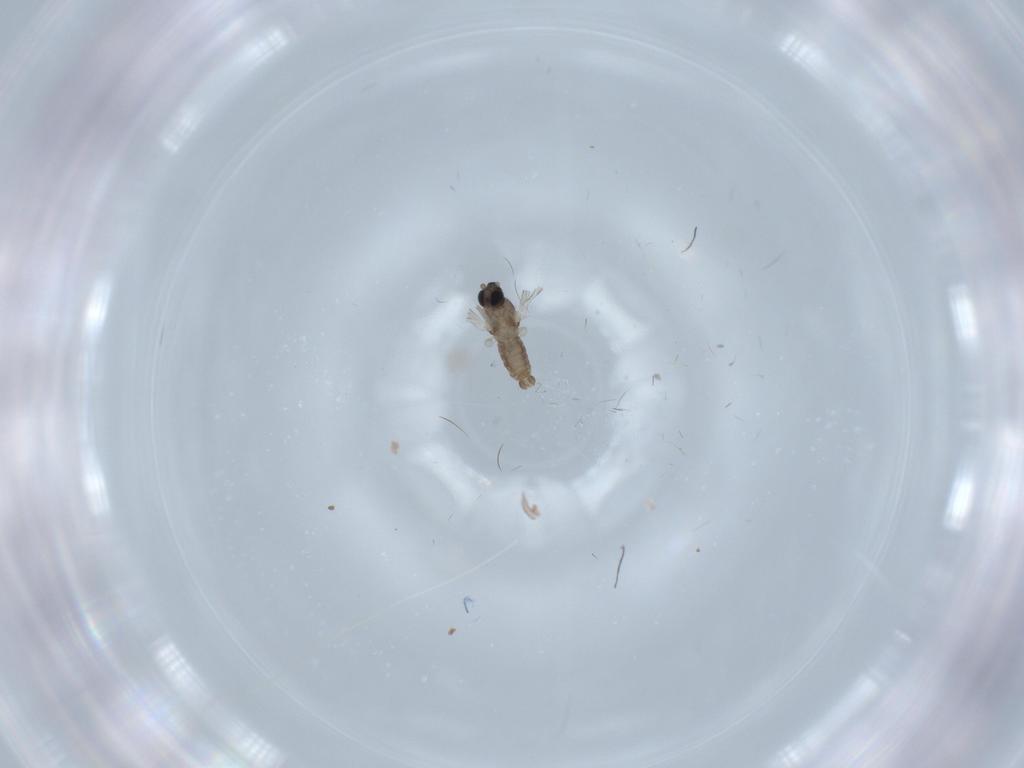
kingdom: Animalia
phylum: Arthropoda
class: Insecta
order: Diptera
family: Cecidomyiidae
